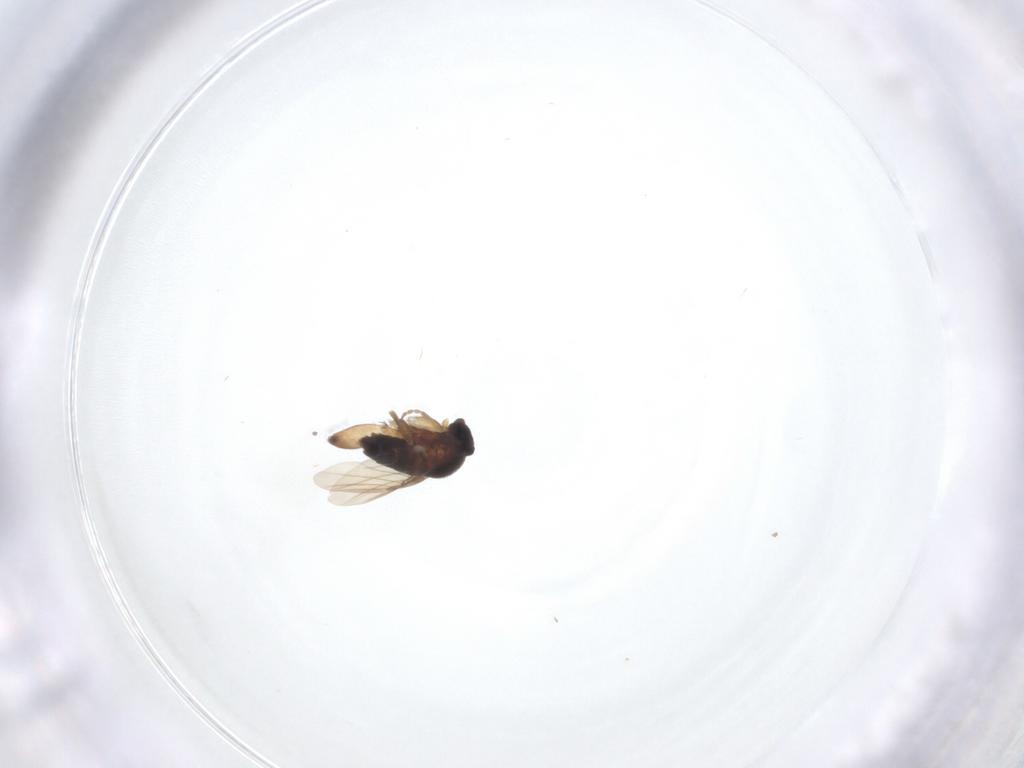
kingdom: Animalia
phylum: Arthropoda
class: Insecta
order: Diptera
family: Phoridae
